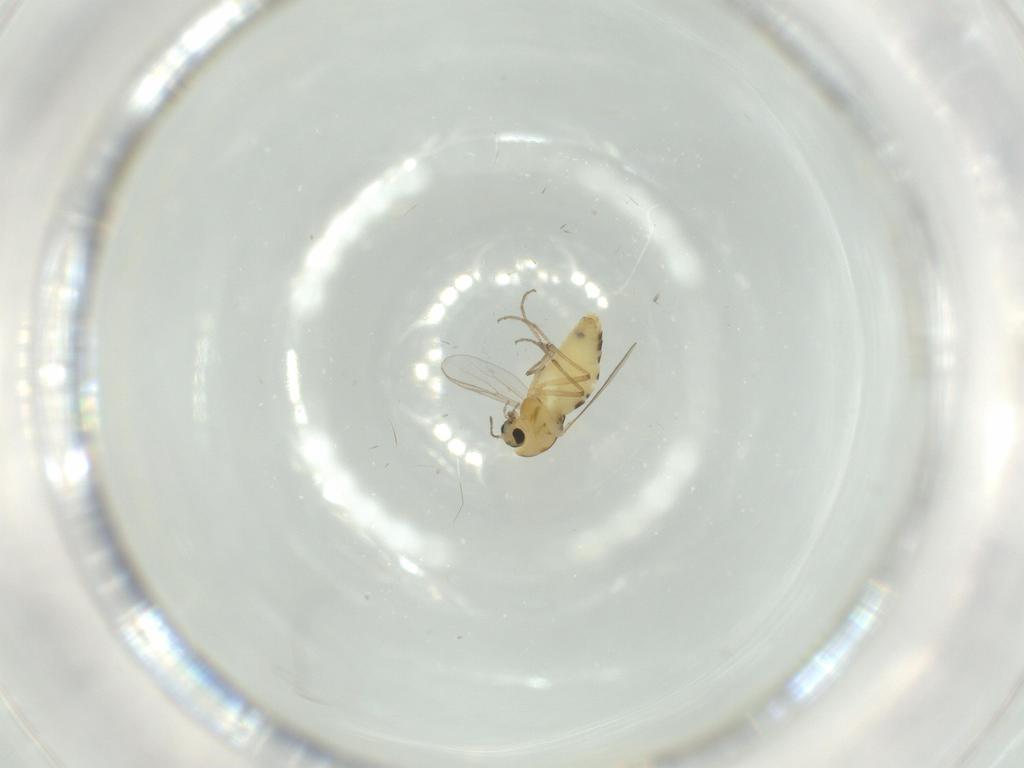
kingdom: Animalia
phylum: Arthropoda
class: Insecta
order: Diptera
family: Chironomidae
